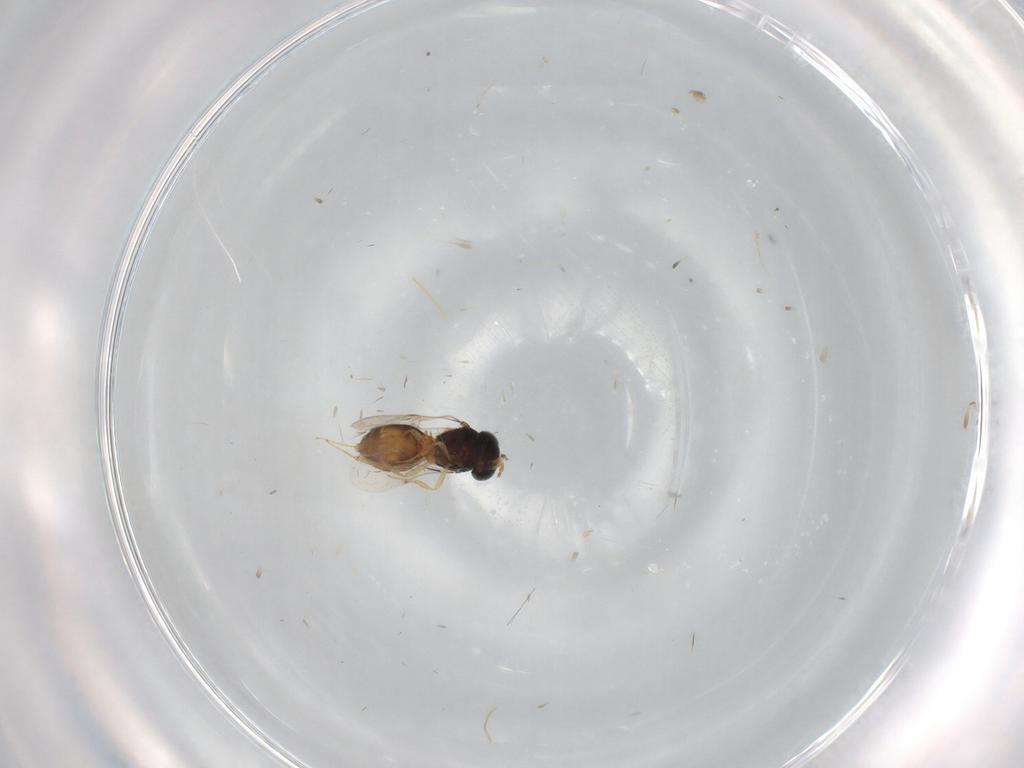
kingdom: Animalia
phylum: Arthropoda
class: Insecta
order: Hymenoptera
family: Scelionidae
